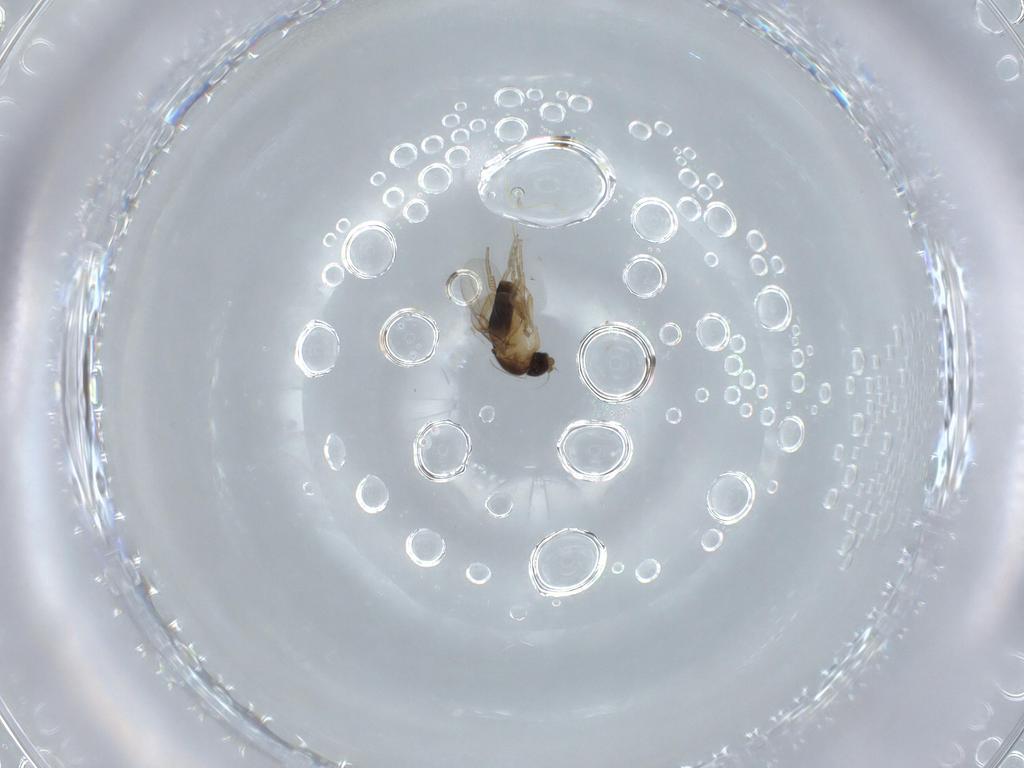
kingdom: Animalia
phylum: Arthropoda
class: Insecta
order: Diptera
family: Phoridae
